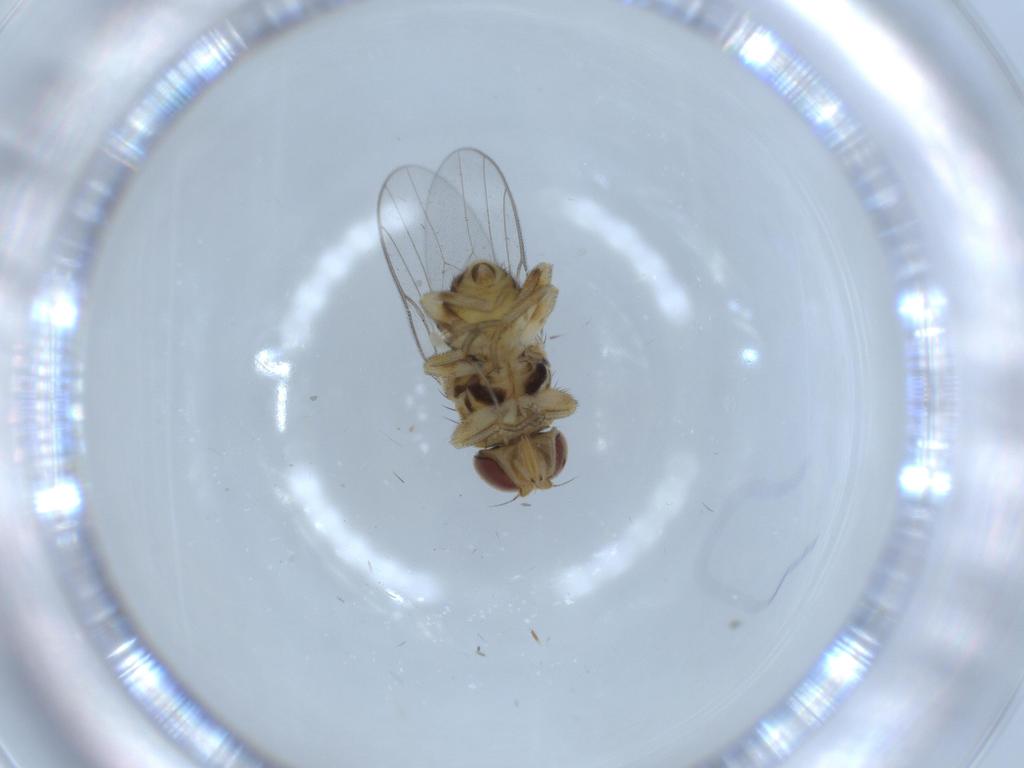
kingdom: Animalia
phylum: Arthropoda
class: Insecta
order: Diptera
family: Chloropidae
